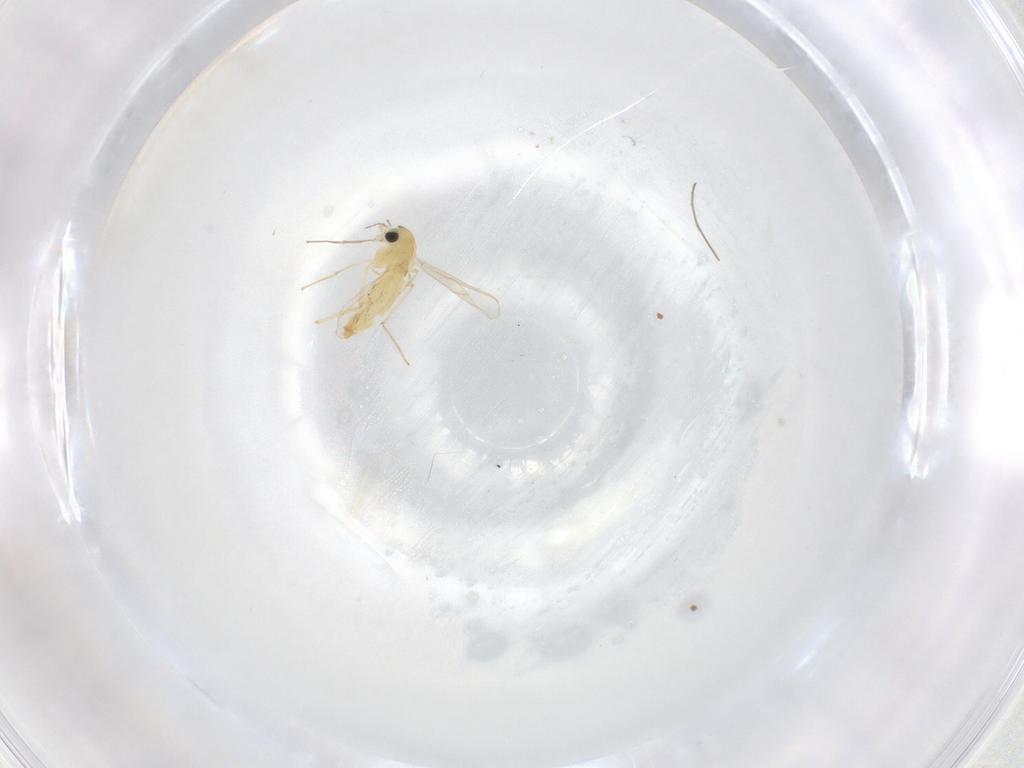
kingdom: Animalia
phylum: Arthropoda
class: Insecta
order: Diptera
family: Chironomidae
